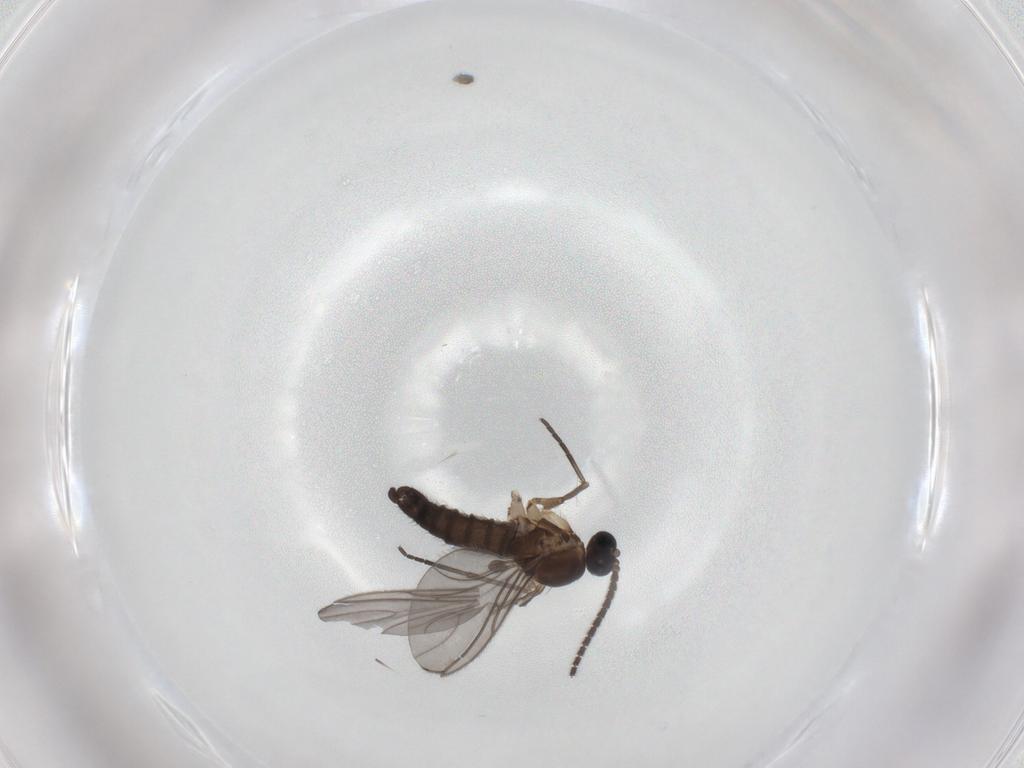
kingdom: Animalia
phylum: Arthropoda
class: Insecta
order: Diptera
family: Sciaridae
